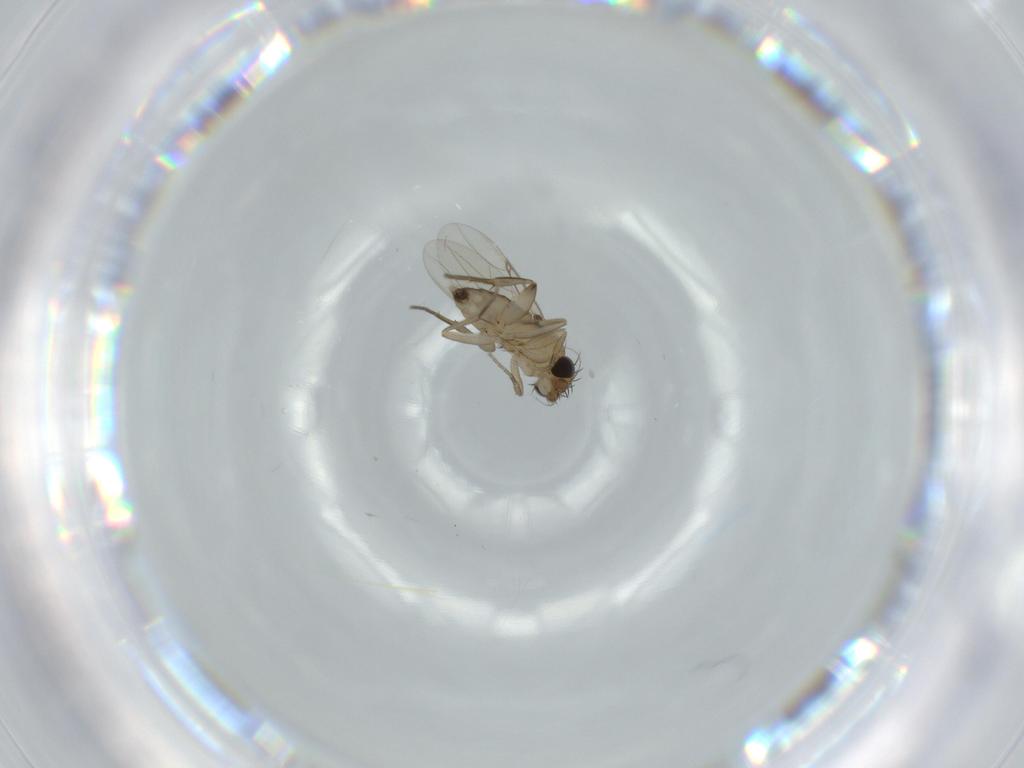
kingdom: Animalia
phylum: Arthropoda
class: Insecta
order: Diptera
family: Phoridae
